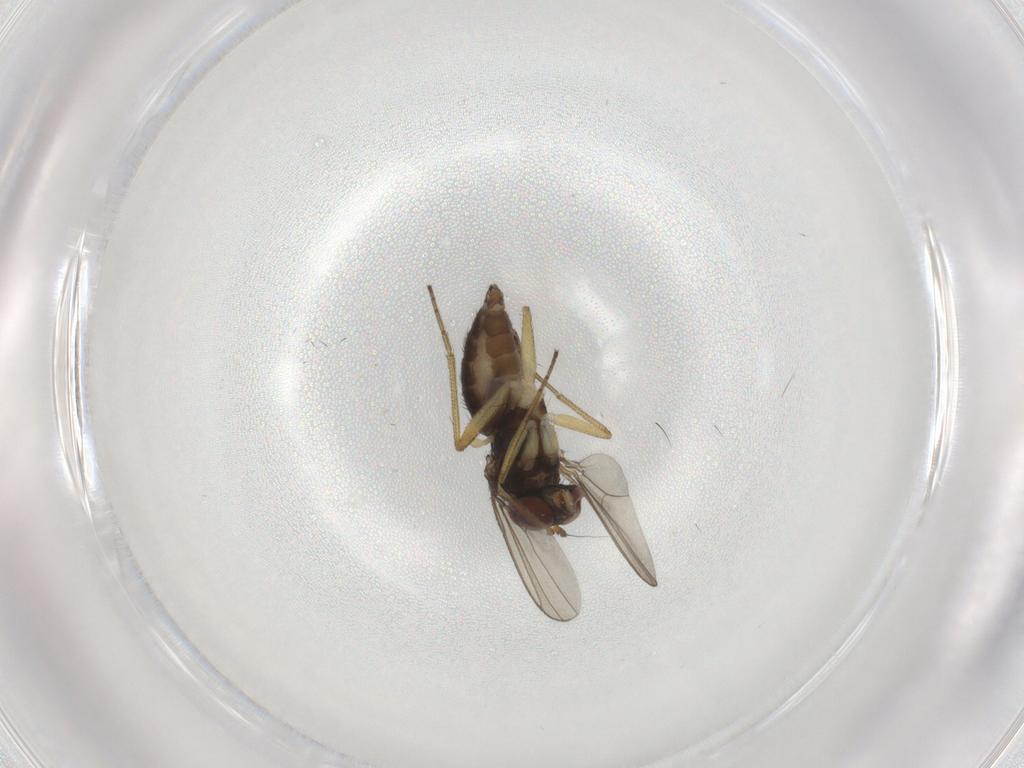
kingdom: Animalia
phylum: Arthropoda
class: Insecta
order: Diptera
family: Dolichopodidae
